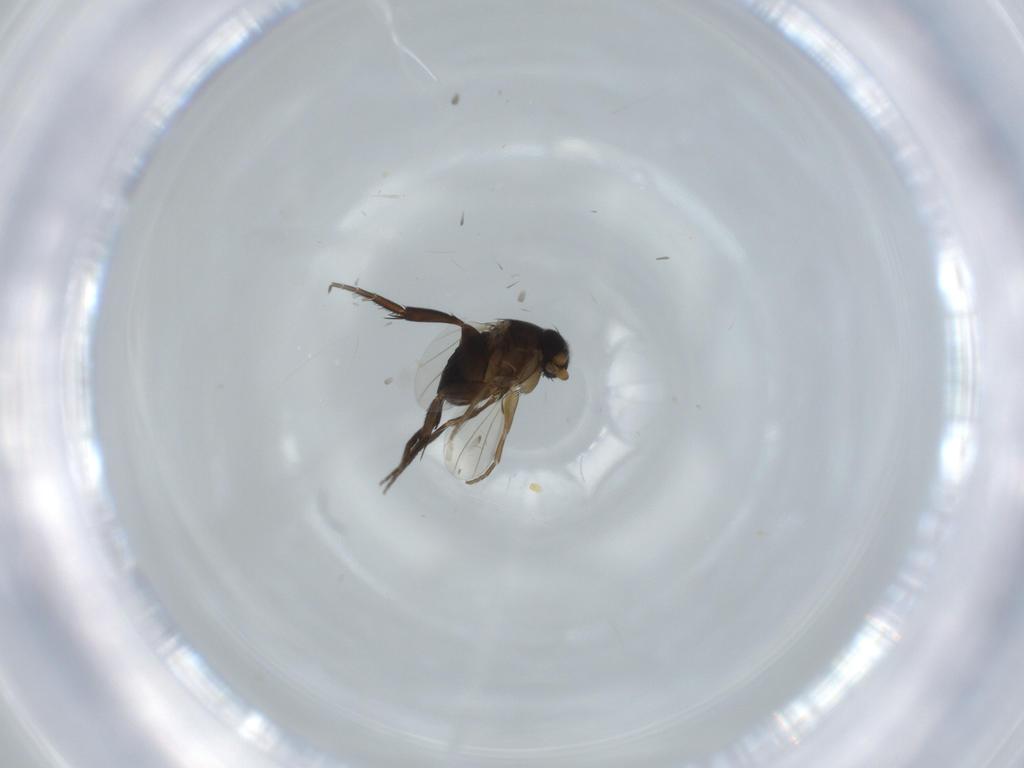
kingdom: Animalia
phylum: Arthropoda
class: Insecta
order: Diptera
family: Phoridae
